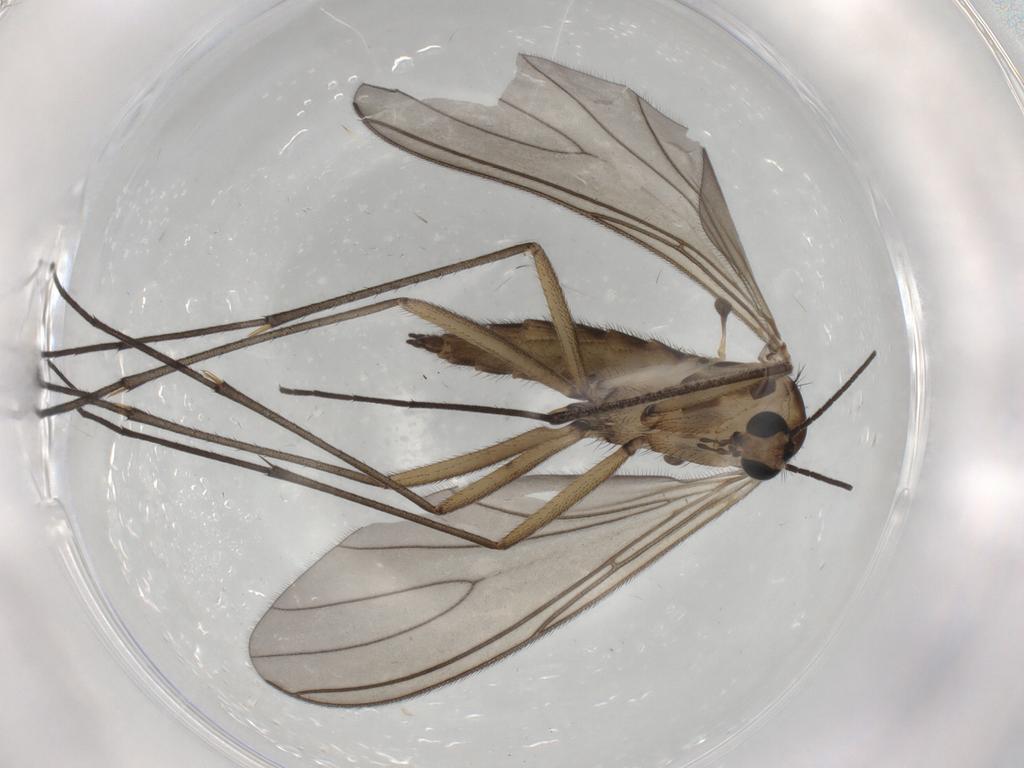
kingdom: Animalia
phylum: Arthropoda
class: Insecta
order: Diptera
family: Sciaridae
